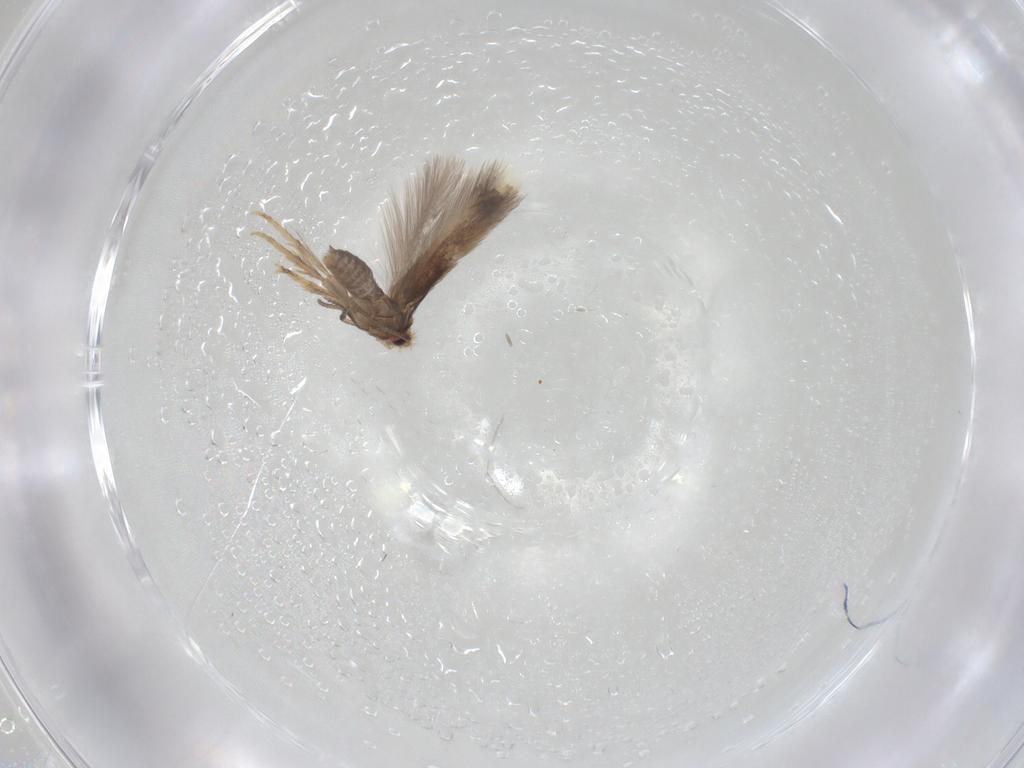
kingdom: Animalia
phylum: Arthropoda
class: Insecta
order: Lepidoptera
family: Nepticulidae
